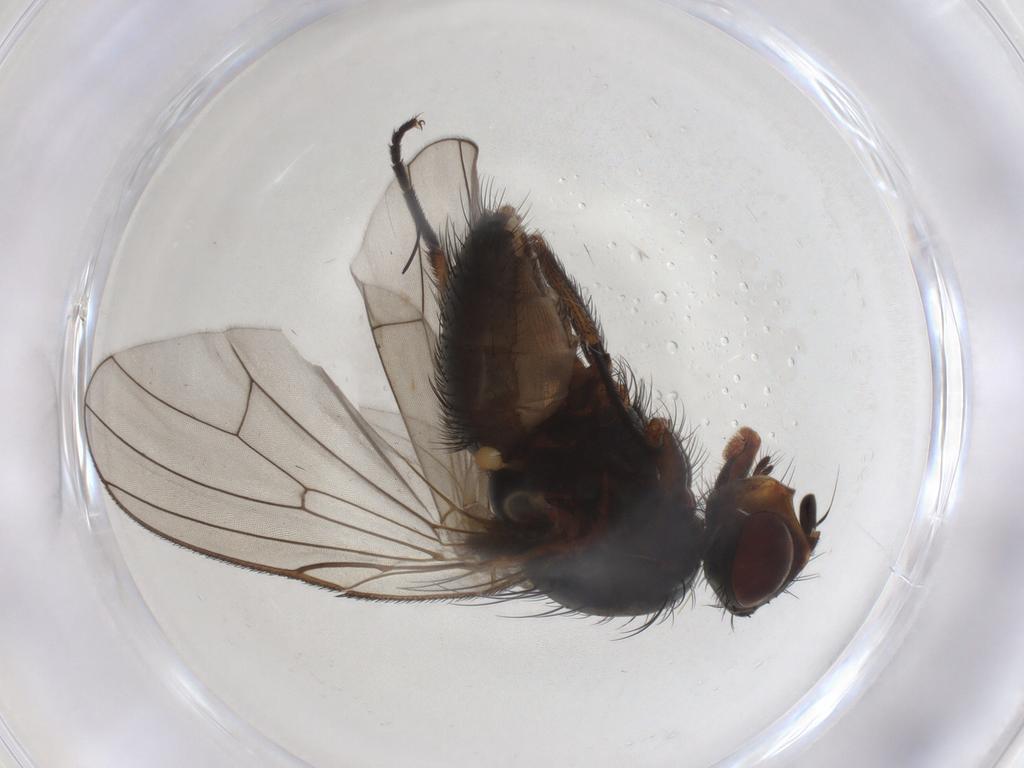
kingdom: Animalia
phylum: Arthropoda
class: Insecta
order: Diptera
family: Anthomyiidae
